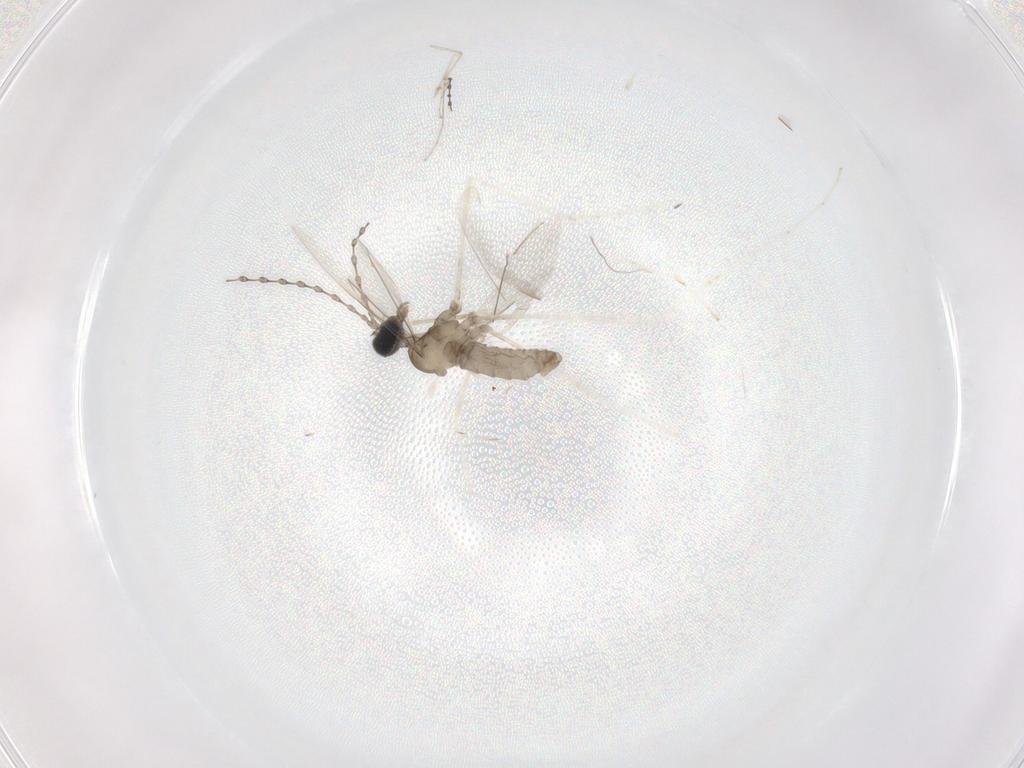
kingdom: Animalia
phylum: Arthropoda
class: Insecta
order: Diptera
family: Cecidomyiidae
